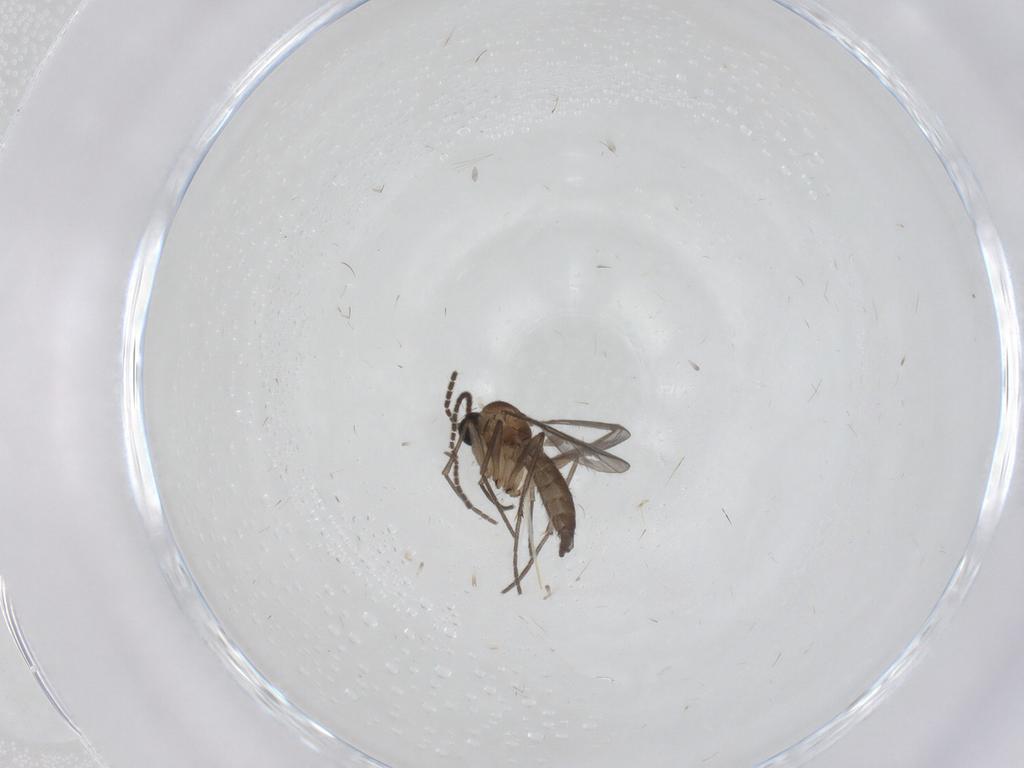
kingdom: Animalia
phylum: Arthropoda
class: Insecta
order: Diptera
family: Sciaridae
